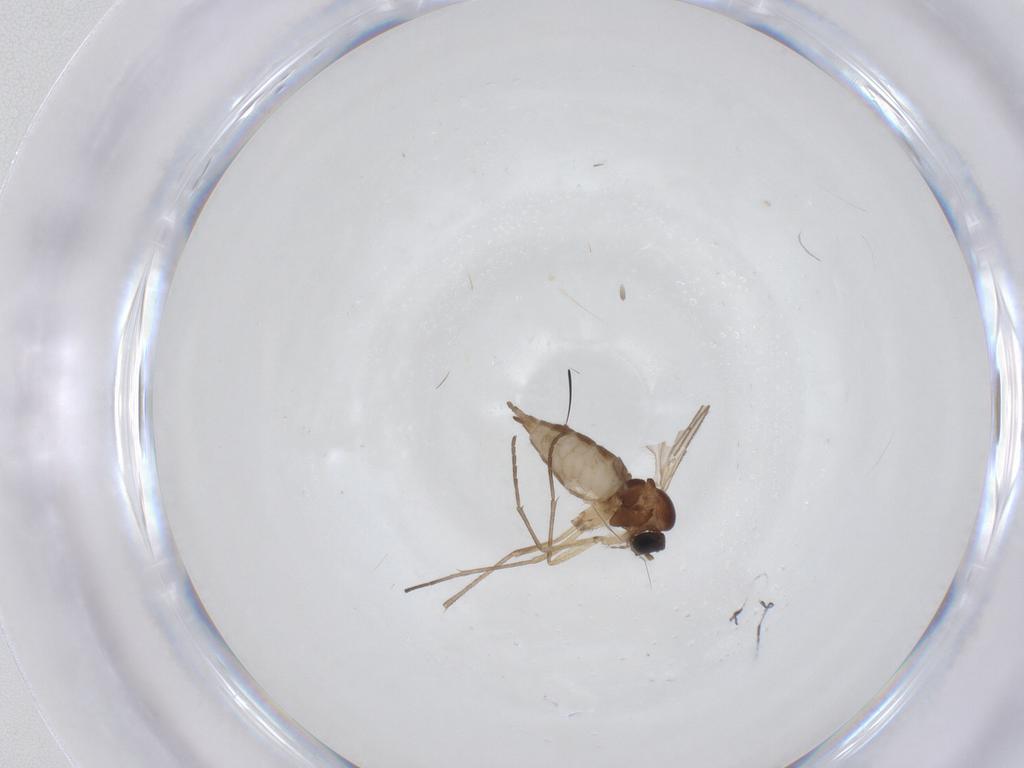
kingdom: Animalia
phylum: Arthropoda
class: Insecta
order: Diptera
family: Sciaridae
